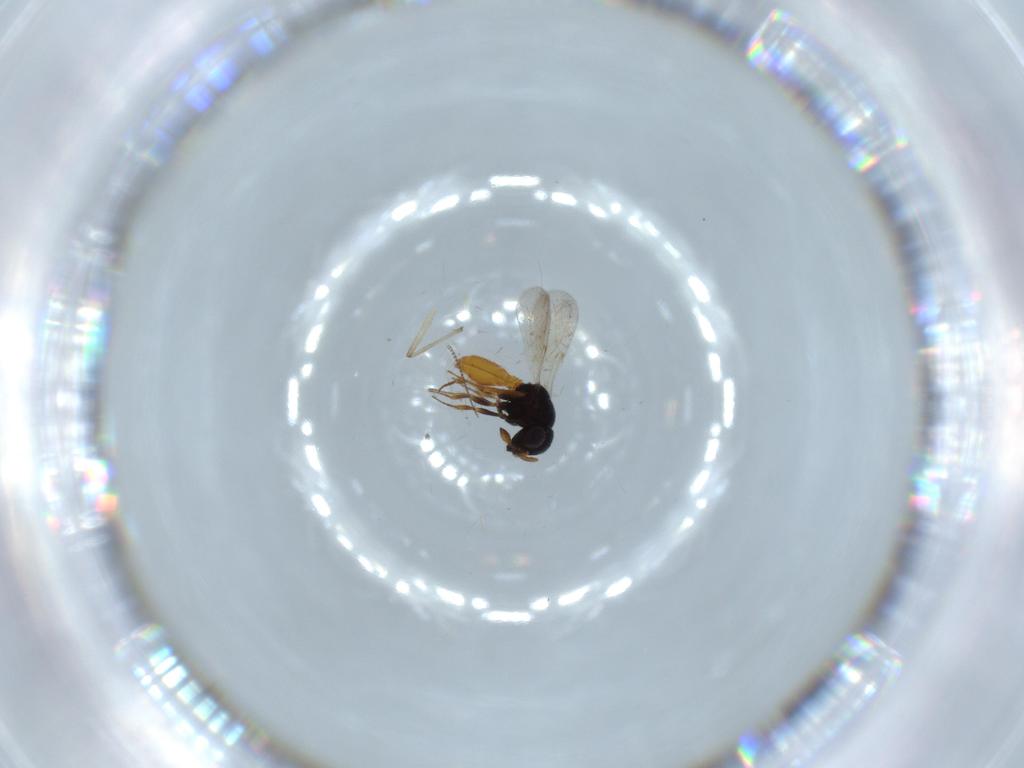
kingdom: Animalia
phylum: Arthropoda
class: Insecta
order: Hymenoptera
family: Scelionidae
